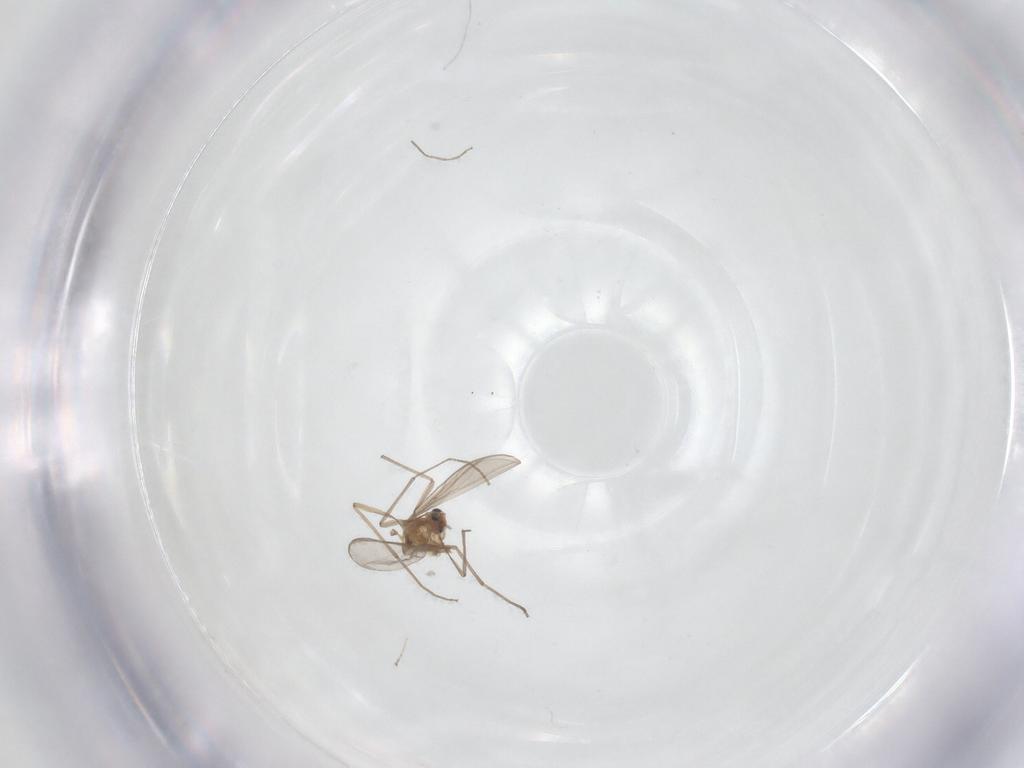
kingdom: Animalia
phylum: Arthropoda
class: Insecta
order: Diptera
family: Chironomidae
